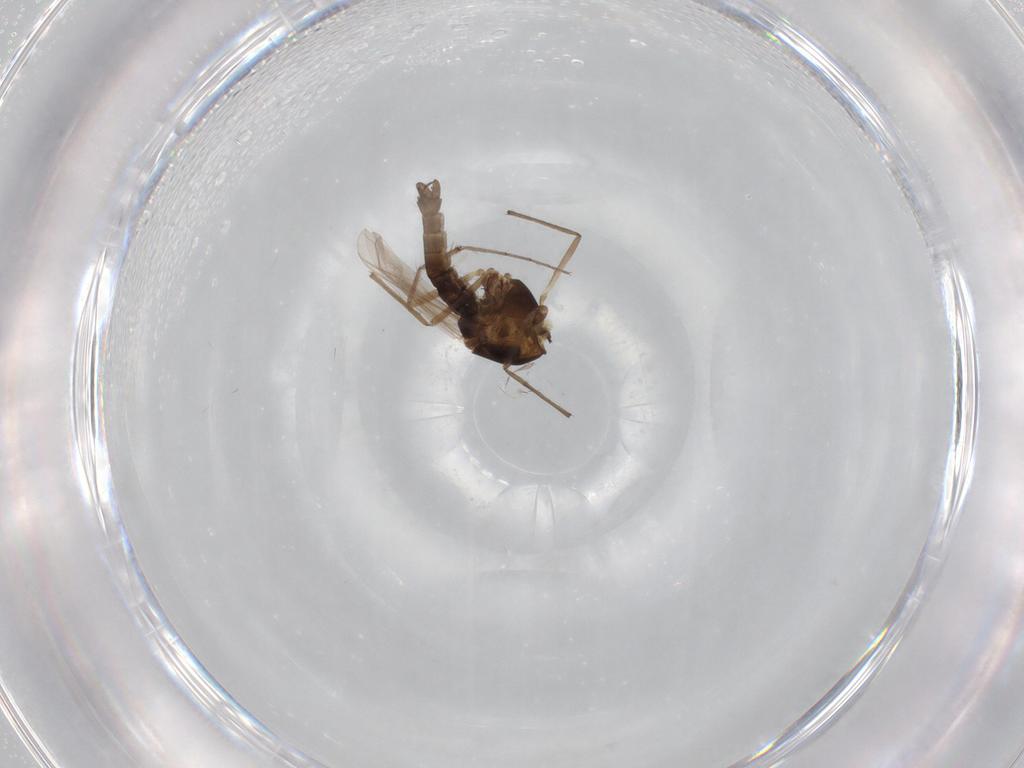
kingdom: Animalia
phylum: Arthropoda
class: Insecta
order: Diptera
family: Chironomidae
